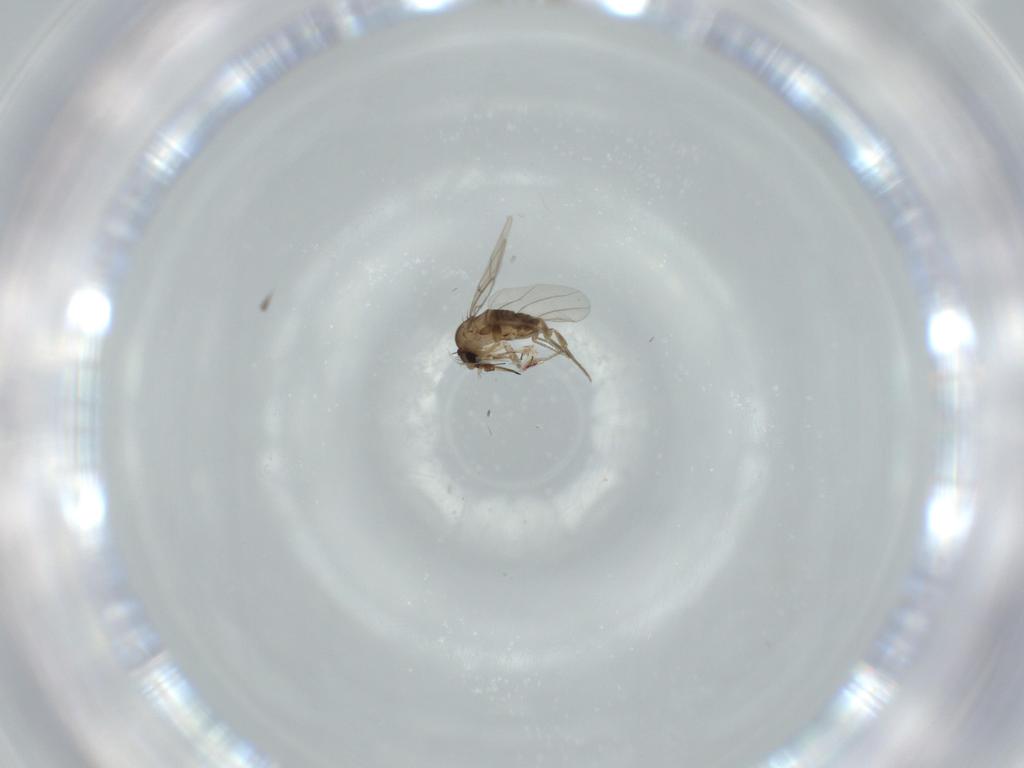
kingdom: Animalia
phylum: Arthropoda
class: Insecta
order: Diptera
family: Phoridae
